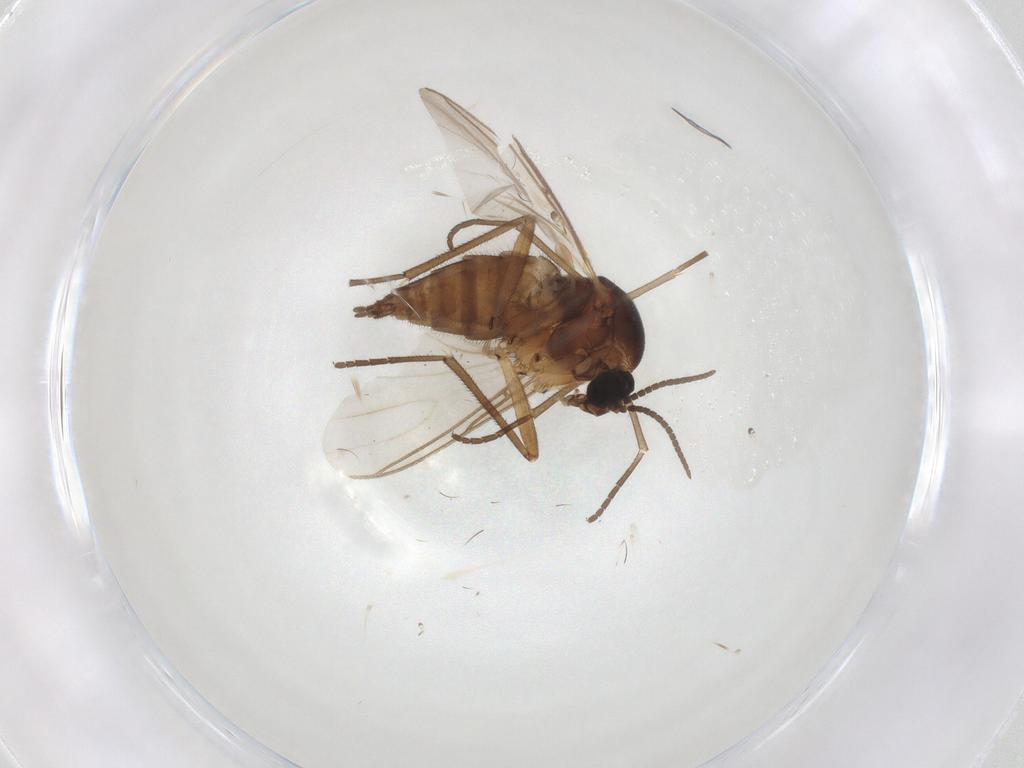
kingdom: Animalia
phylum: Arthropoda
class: Insecta
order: Diptera
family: Sciaridae
